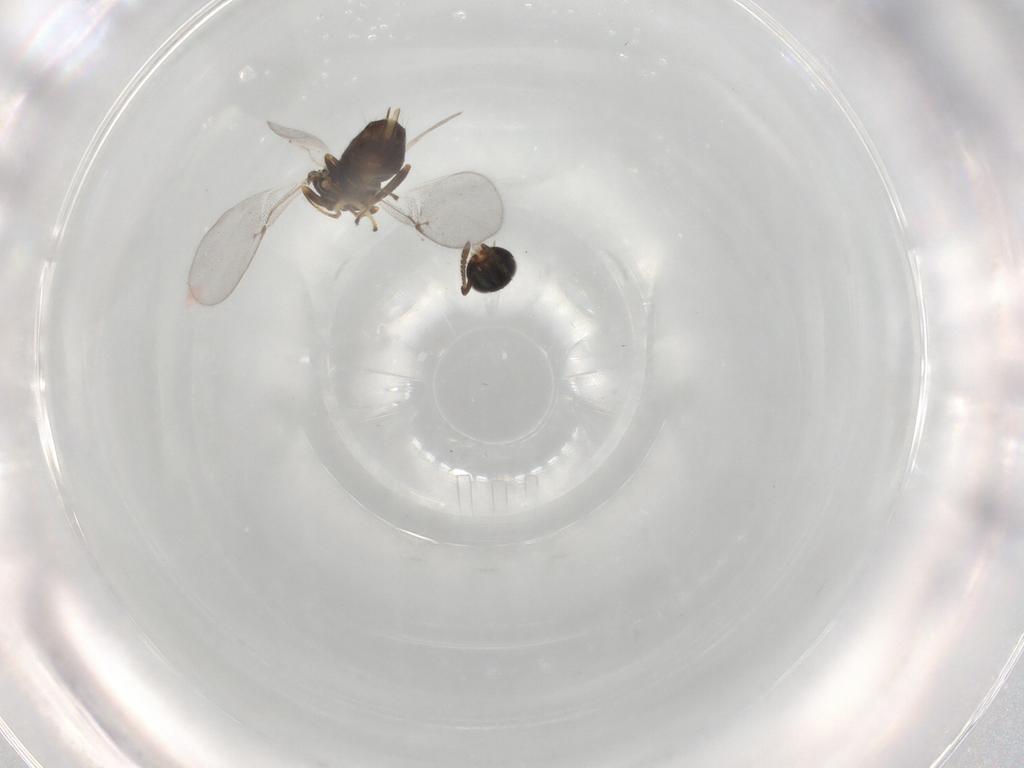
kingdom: Animalia
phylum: Arthropoda
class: Insecta
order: Hymenoptera
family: Encyrtidae
